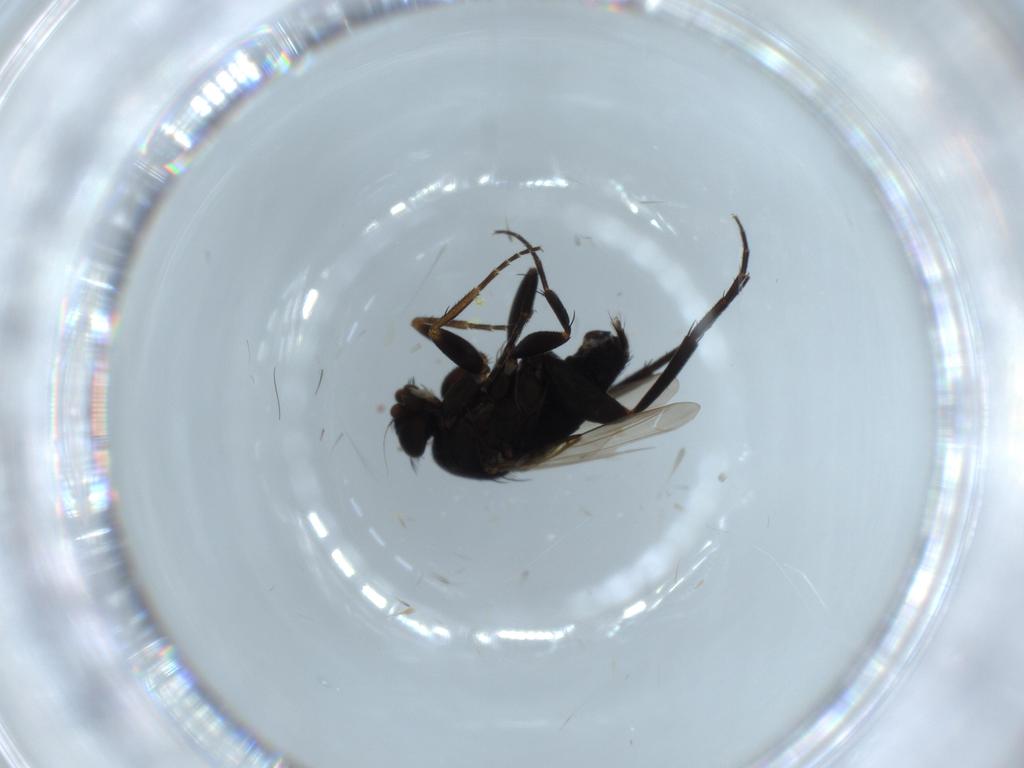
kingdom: Animalia
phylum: Arthropoda
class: Insecta
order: Diptera
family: Phoridae
